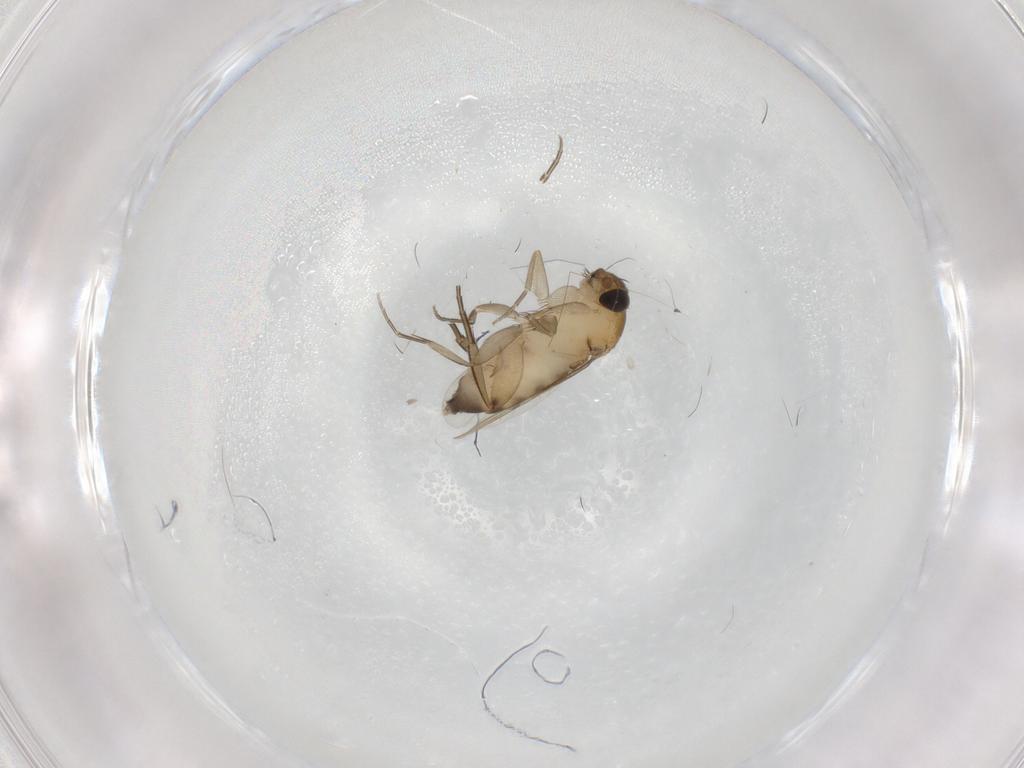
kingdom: Animalia
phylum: Arthropoda
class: Insecta
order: Diptera
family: Phoridae
